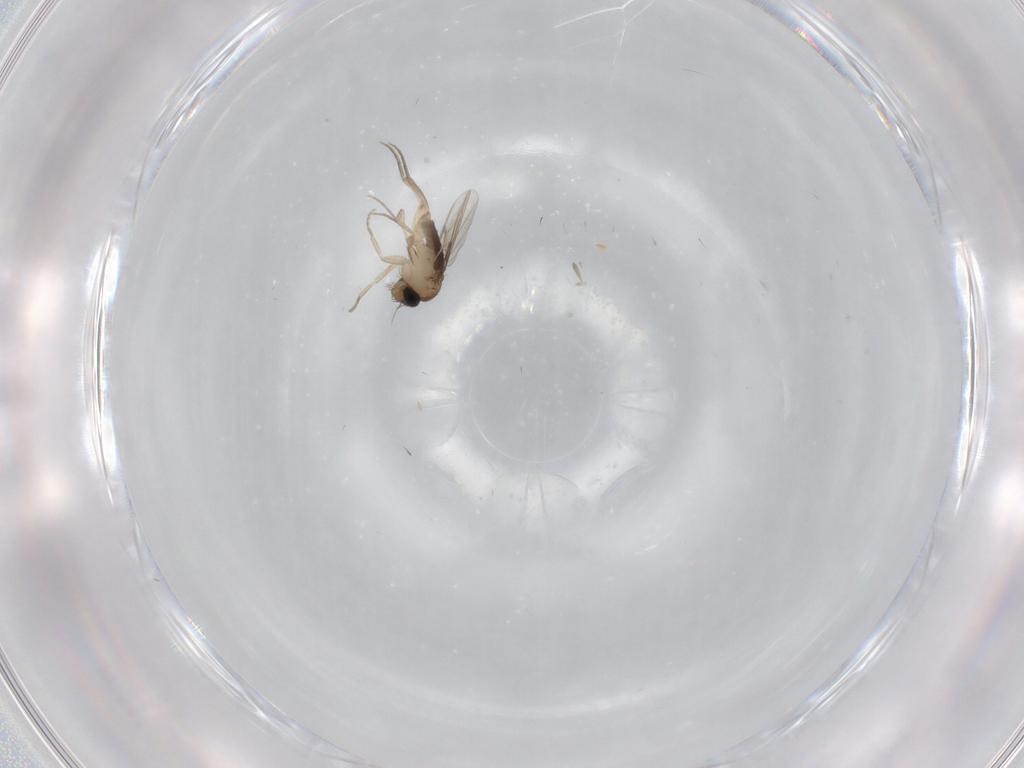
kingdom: Animalia
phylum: Arthropoda
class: Insecta
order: Diptera
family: Phoridae
